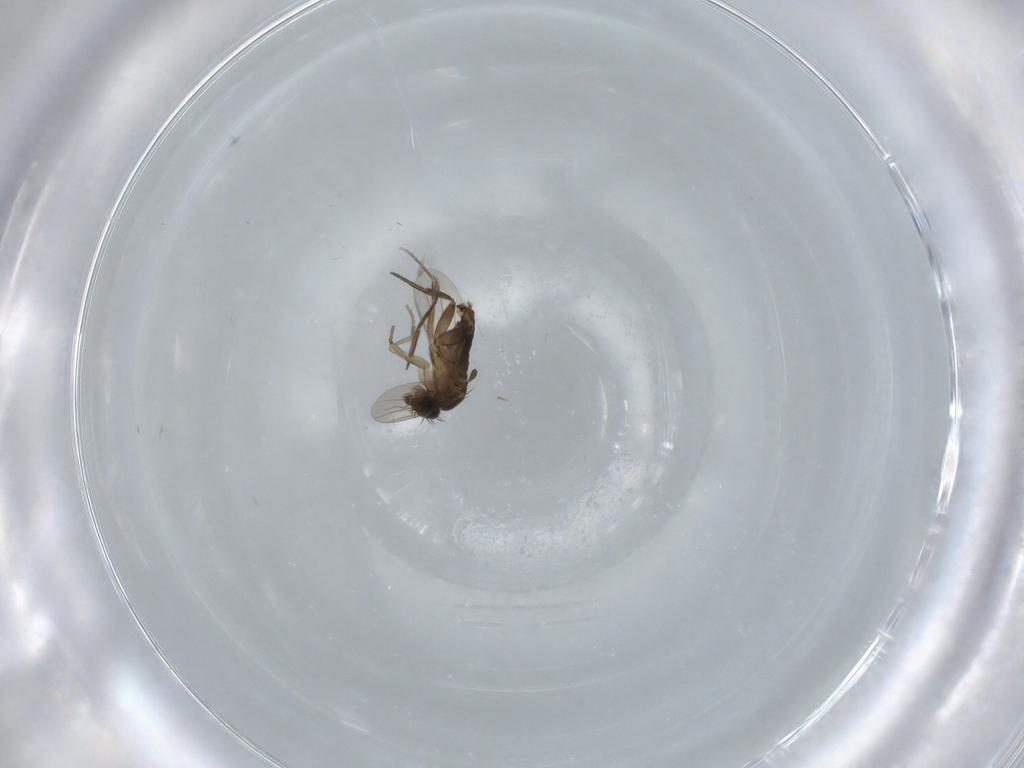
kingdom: Animalia
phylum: Arthropoda
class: Insecta
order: Diptera
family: Phoridae
